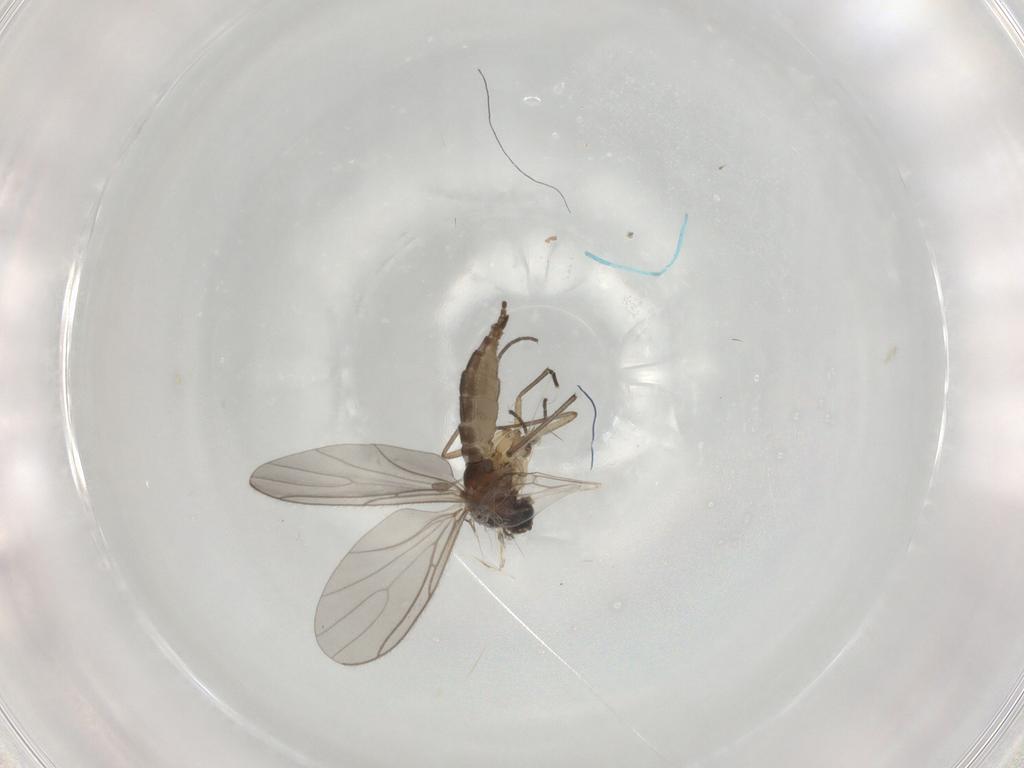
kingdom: Animalia
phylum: Arthropoda
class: Insecta
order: Diptera
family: Sciaridae
